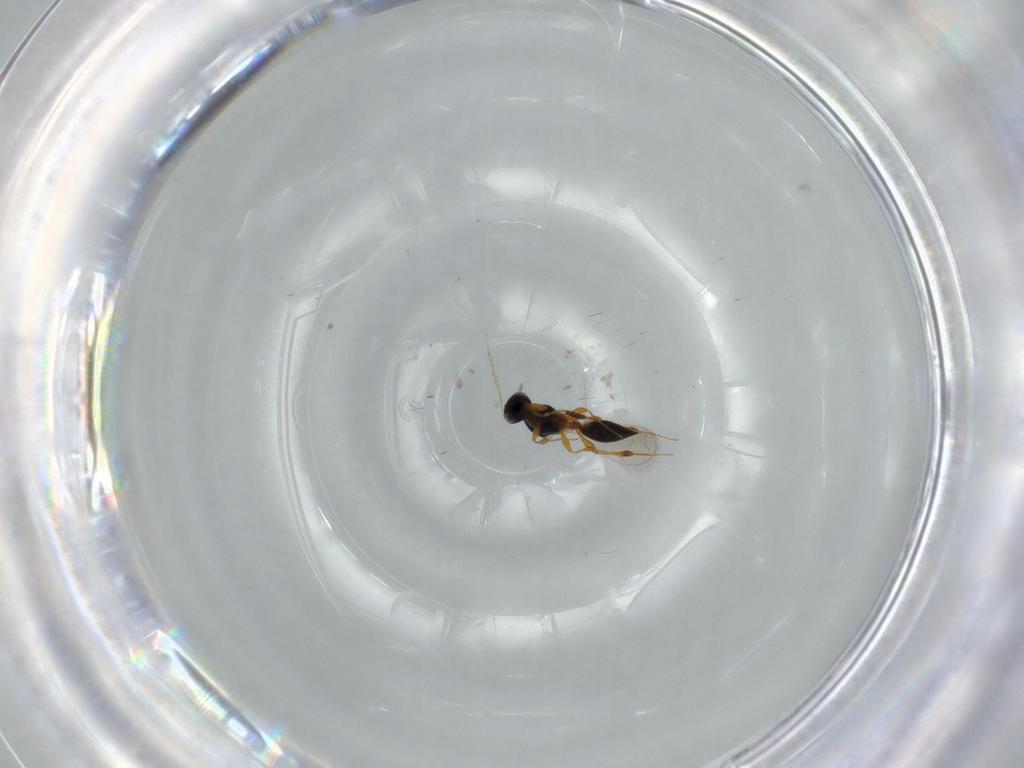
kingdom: Animalia
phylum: Arthropoda
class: Insecta
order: Hymenoptera
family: Platygastridae
